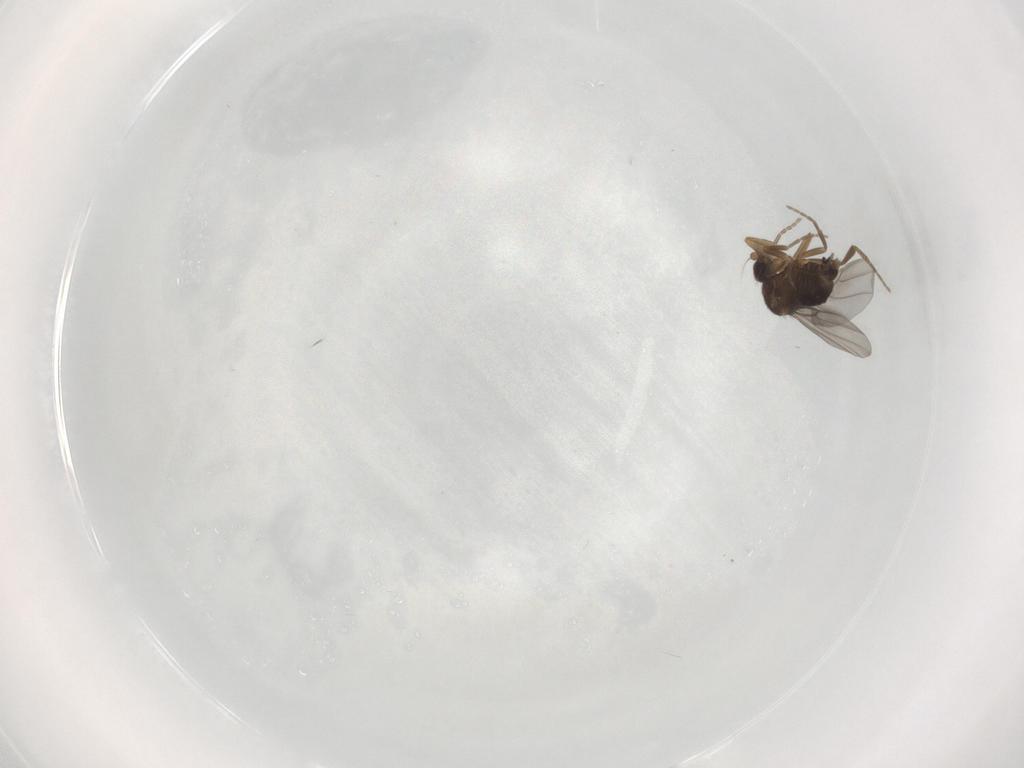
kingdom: Animalia
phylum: Arthropoda
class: Insecta
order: Diptera
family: Phoridae
